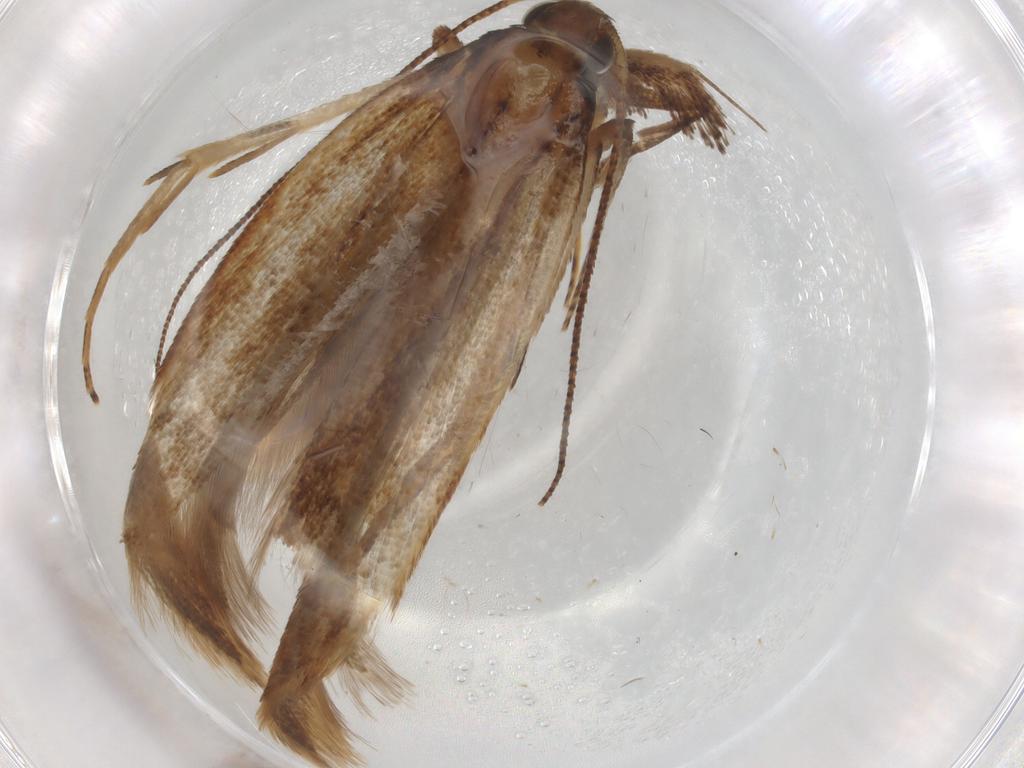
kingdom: Animalia
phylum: Arthropoda
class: Insecta
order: Lepidoptera
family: Gelechiidae
